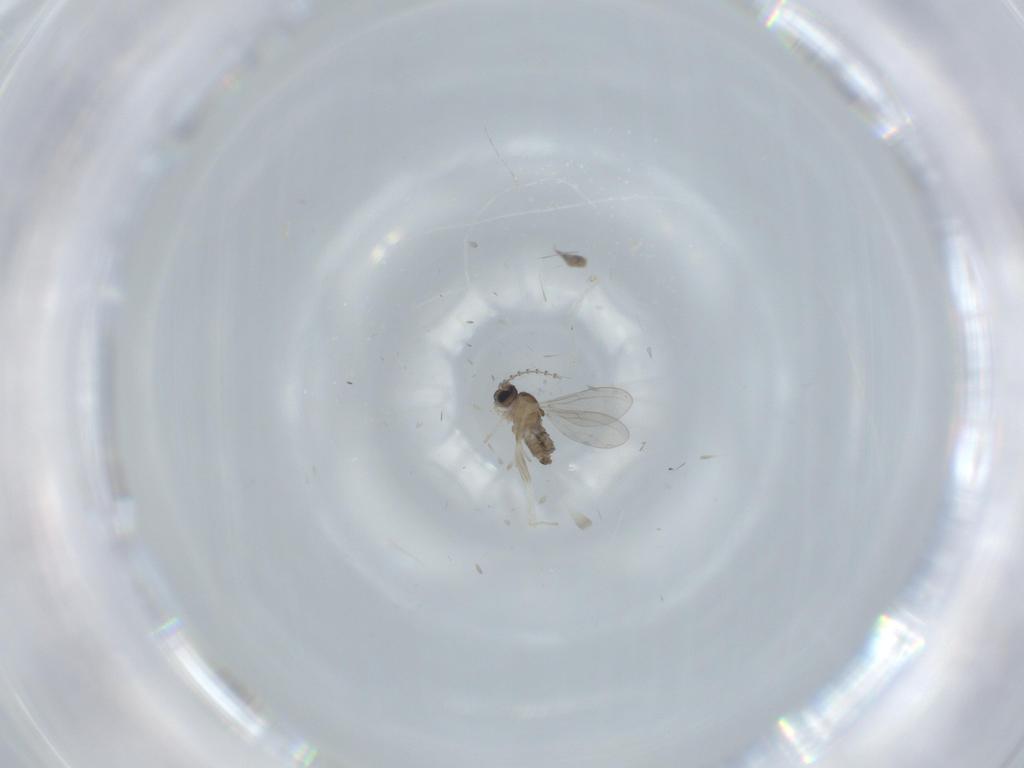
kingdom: Animalia
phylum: Arthropoda
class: Insecta
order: Diptera
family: Cecidomyiidae
